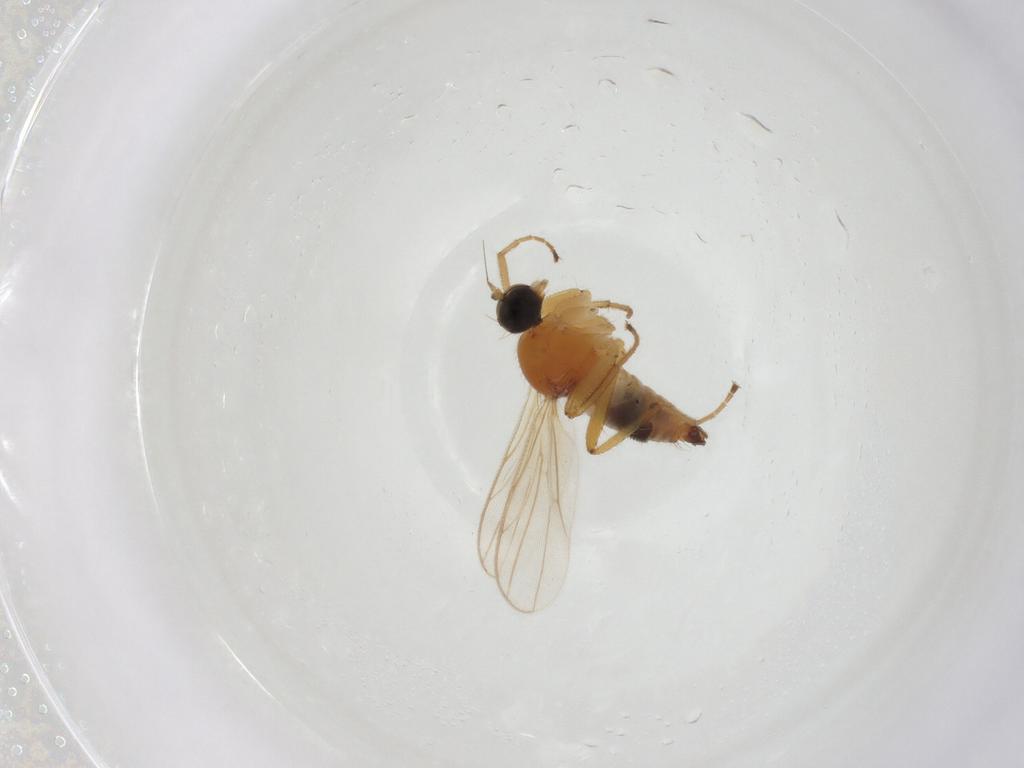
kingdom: Animalia
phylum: Arthropoda
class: Insecta
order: Diptera
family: Hybotidae
